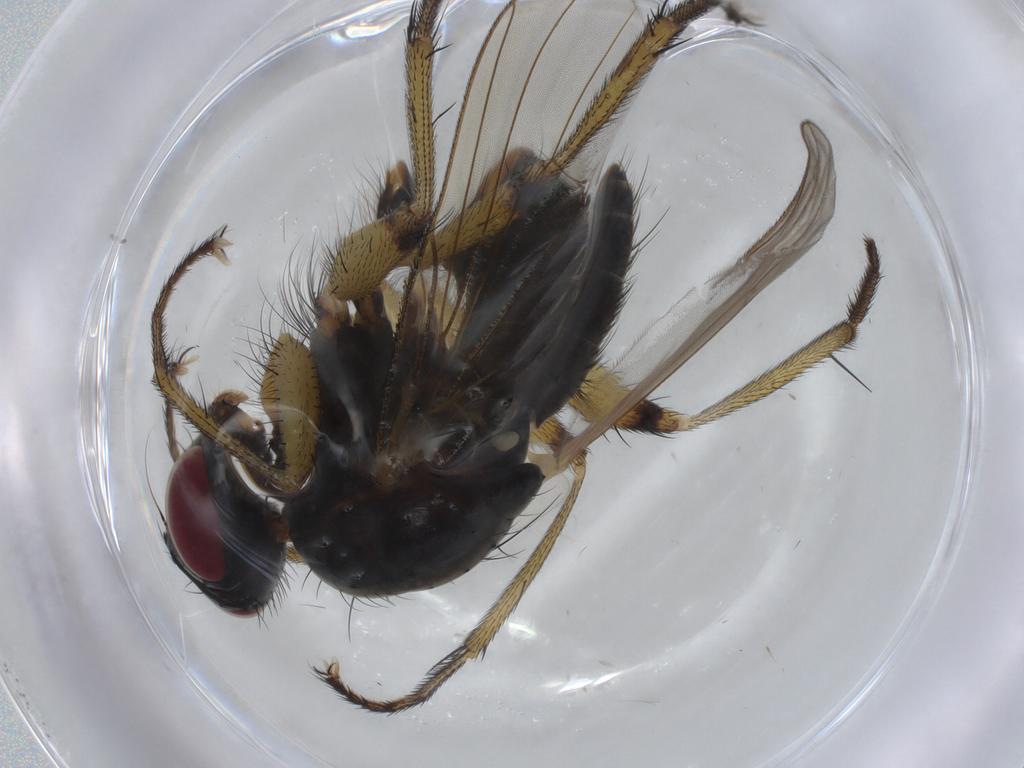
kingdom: Animalia
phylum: Arthropoda
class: Insecta
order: Diptera
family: Cecidomyiidae
